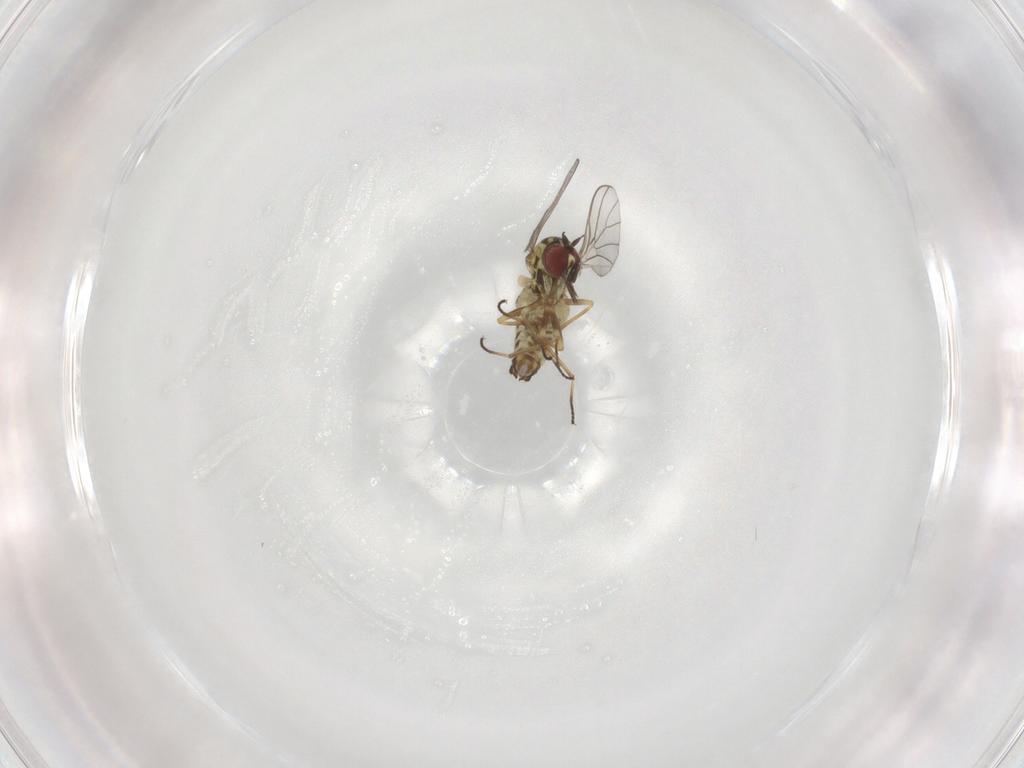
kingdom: Animalia
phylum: Arthropoda
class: Insecta
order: Diptera
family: Bombyliidae
